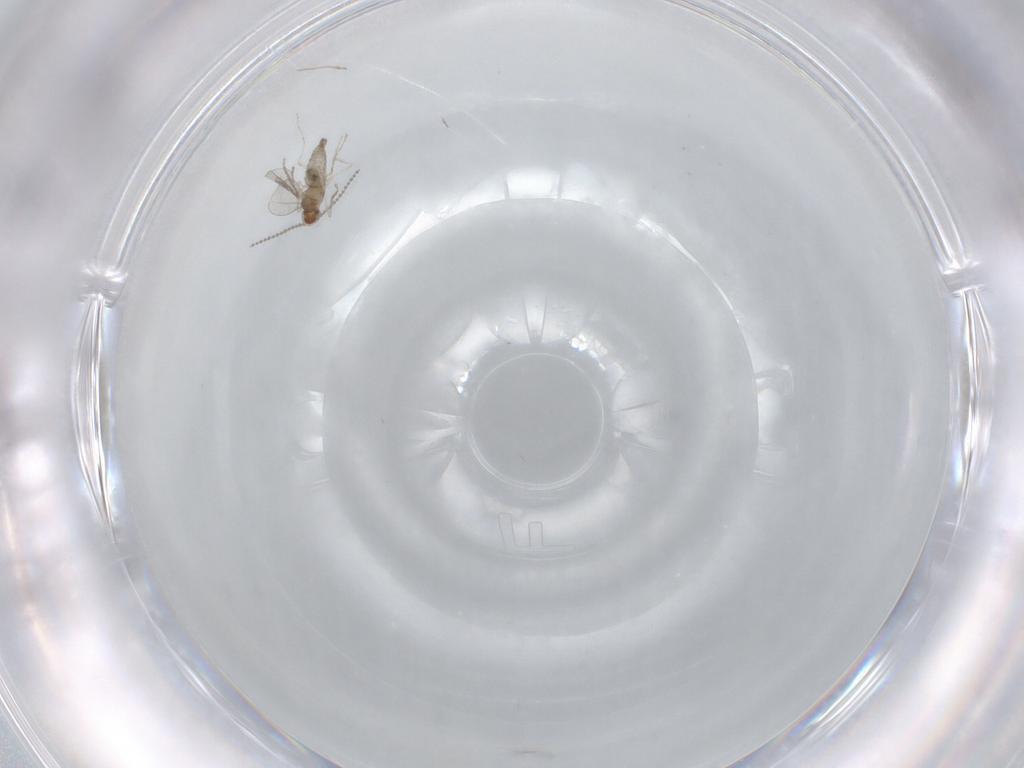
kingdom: Animalia
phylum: Arthropoda
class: Insecta
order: Diptera
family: Cecidomyiidae
